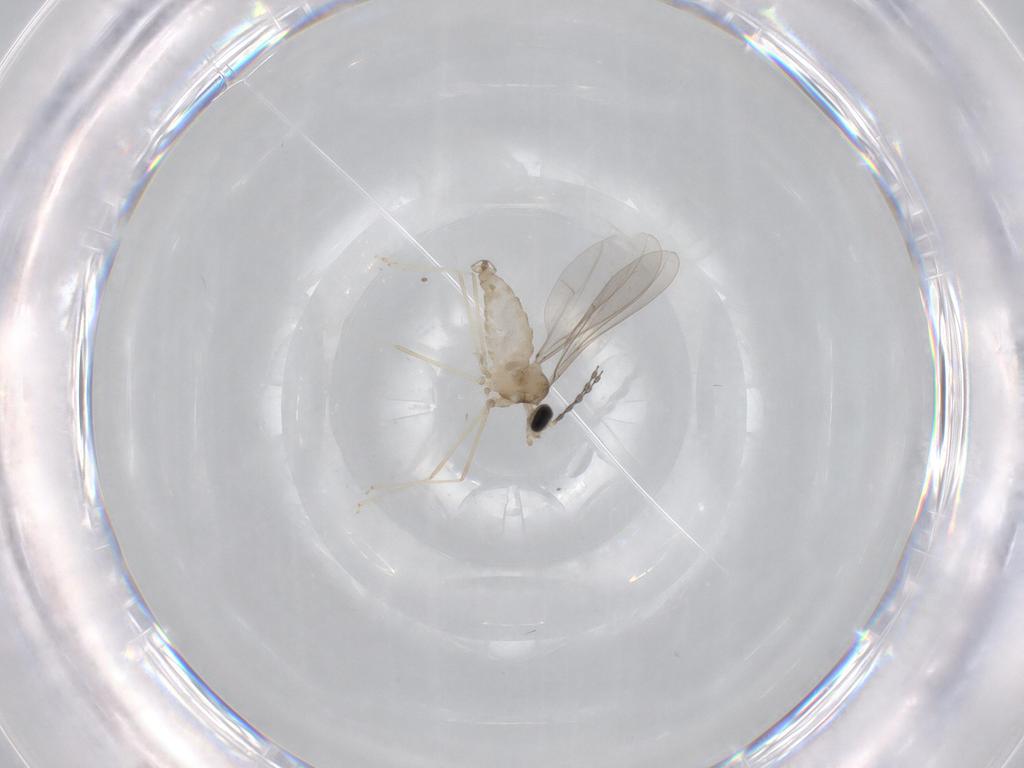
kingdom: Animalia
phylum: Arthropoda
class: Insecta
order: Diptera
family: Cecidomyiidae
